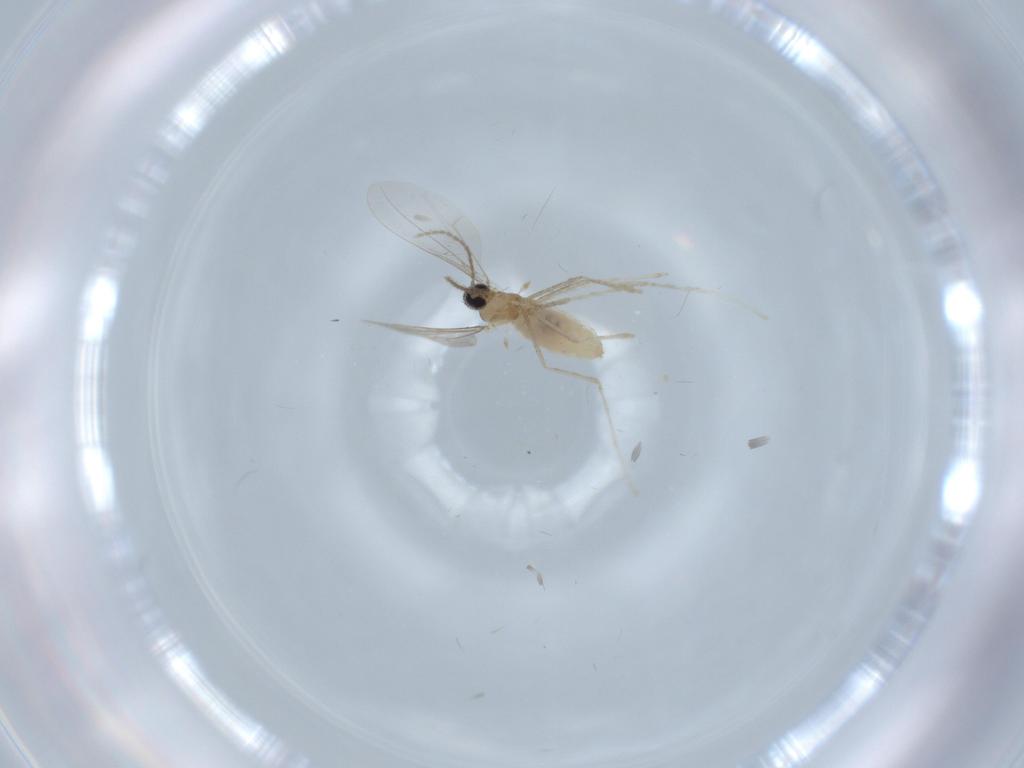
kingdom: Animalia
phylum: Arthropoda
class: Insecta
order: Diptera
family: Cecidomyiidae
